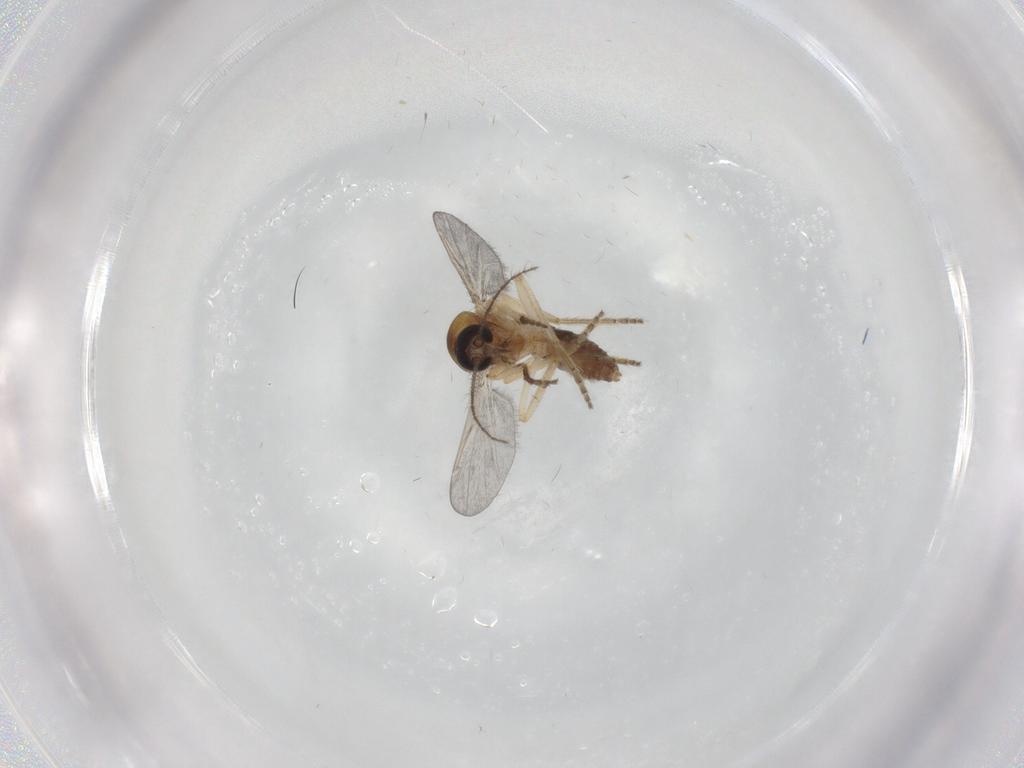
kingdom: Animalia
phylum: Arthropoda
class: Insecta
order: Diptera
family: Ceratopogonidae
